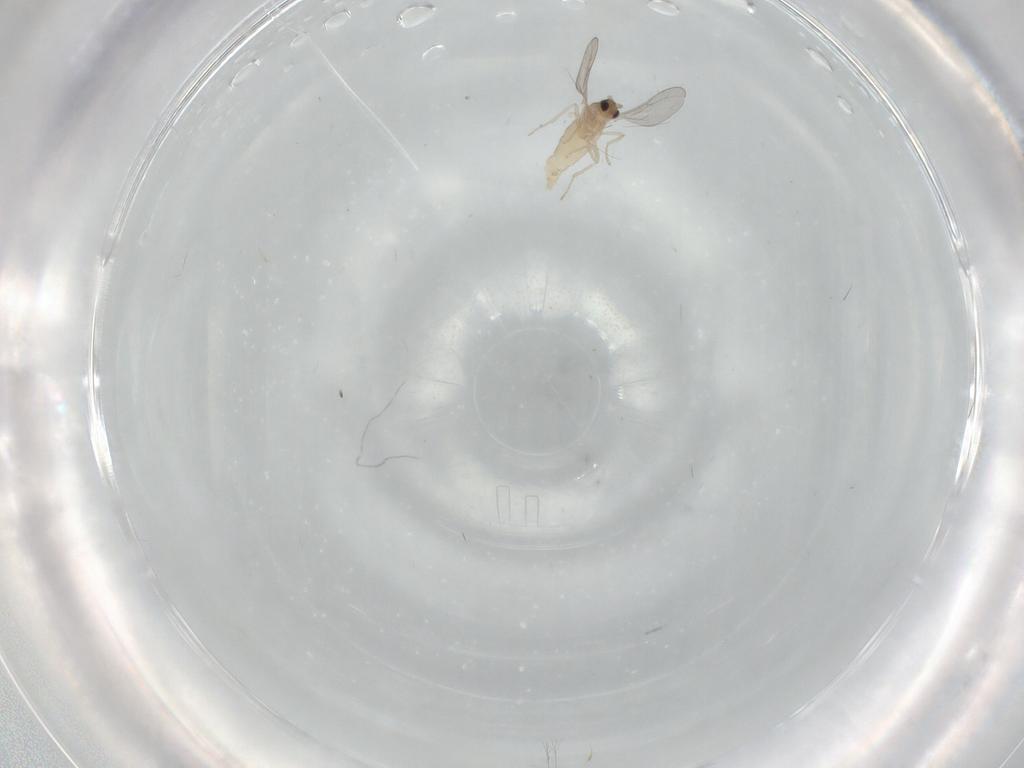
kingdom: Animalia
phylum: Arthropoda
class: Insecta
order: Diptera
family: Cecidomyiidae
